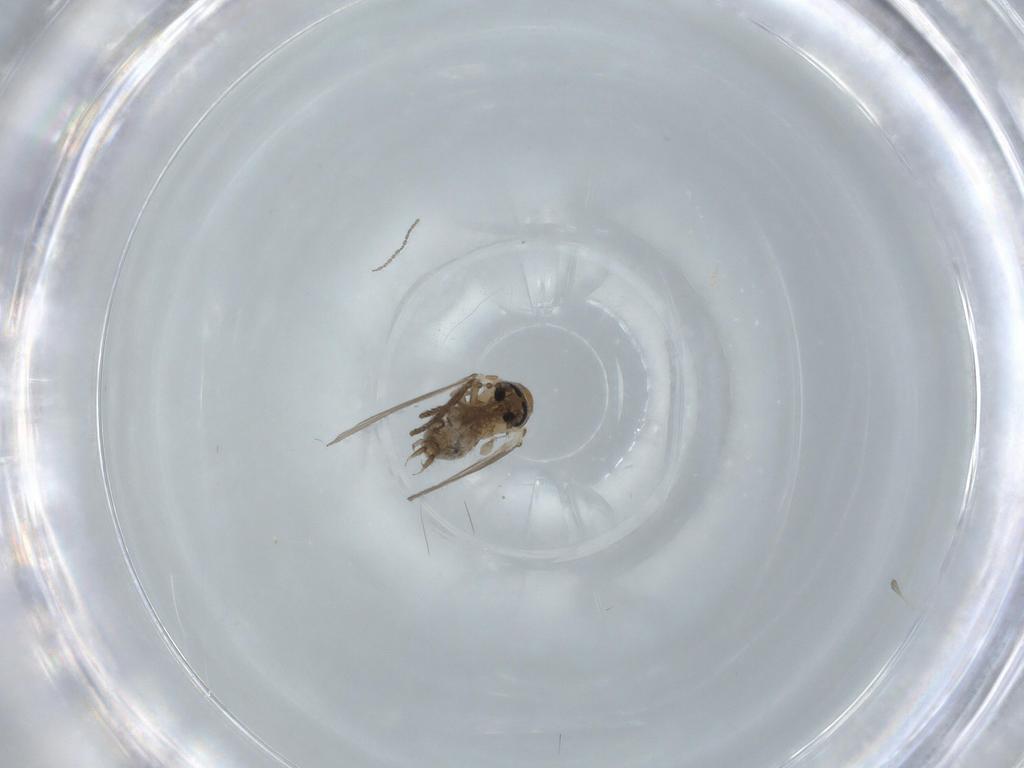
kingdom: Animalia
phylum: Arthropoda
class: Insecta
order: Diptera
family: Psychodidae
